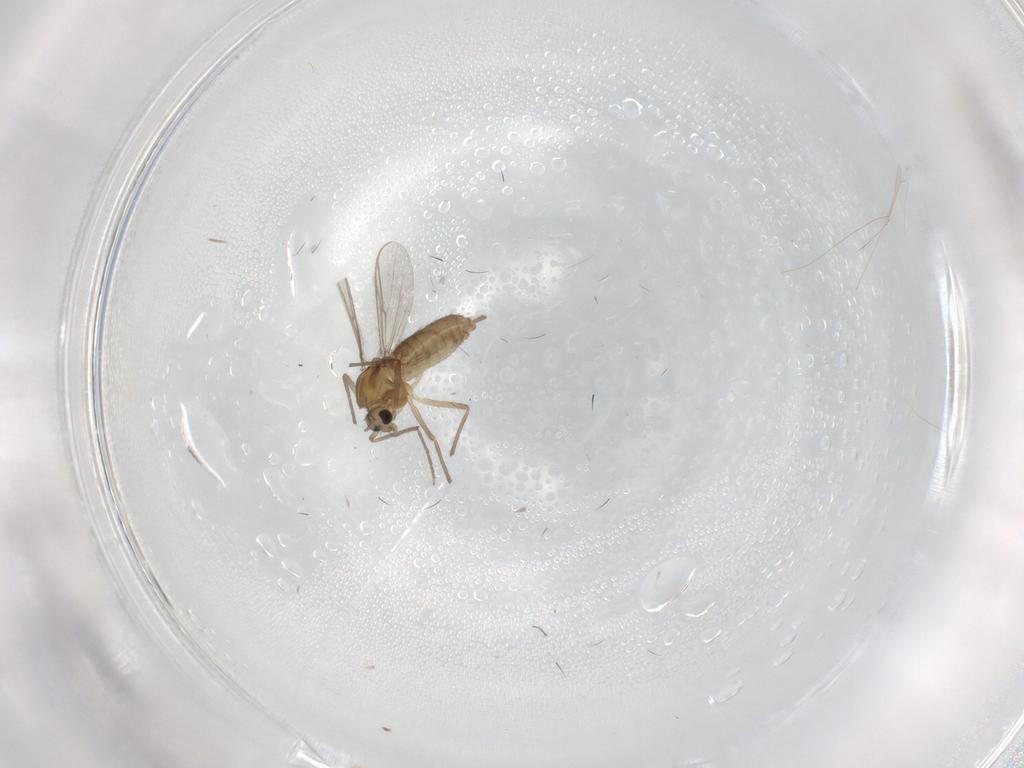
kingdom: Animalia
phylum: Arthropoda
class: Insecta
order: Diptera
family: Chironomidae
